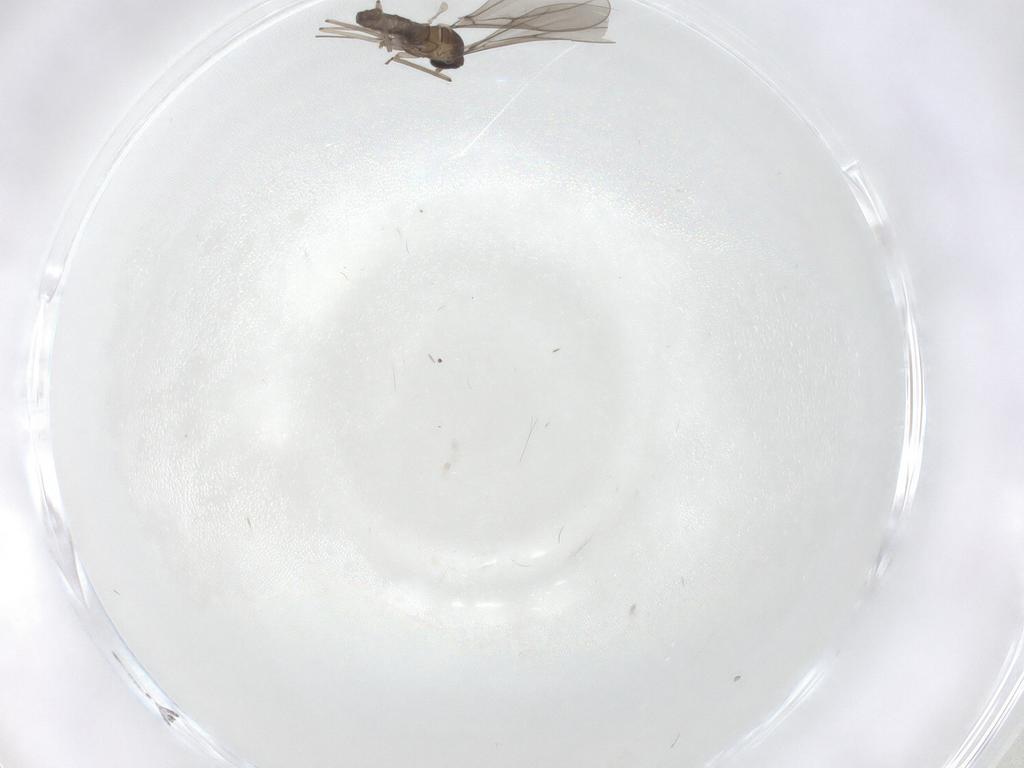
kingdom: Animalia
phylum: Arthropoda
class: Insecta
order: Diptera
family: Cecidomyiidae
